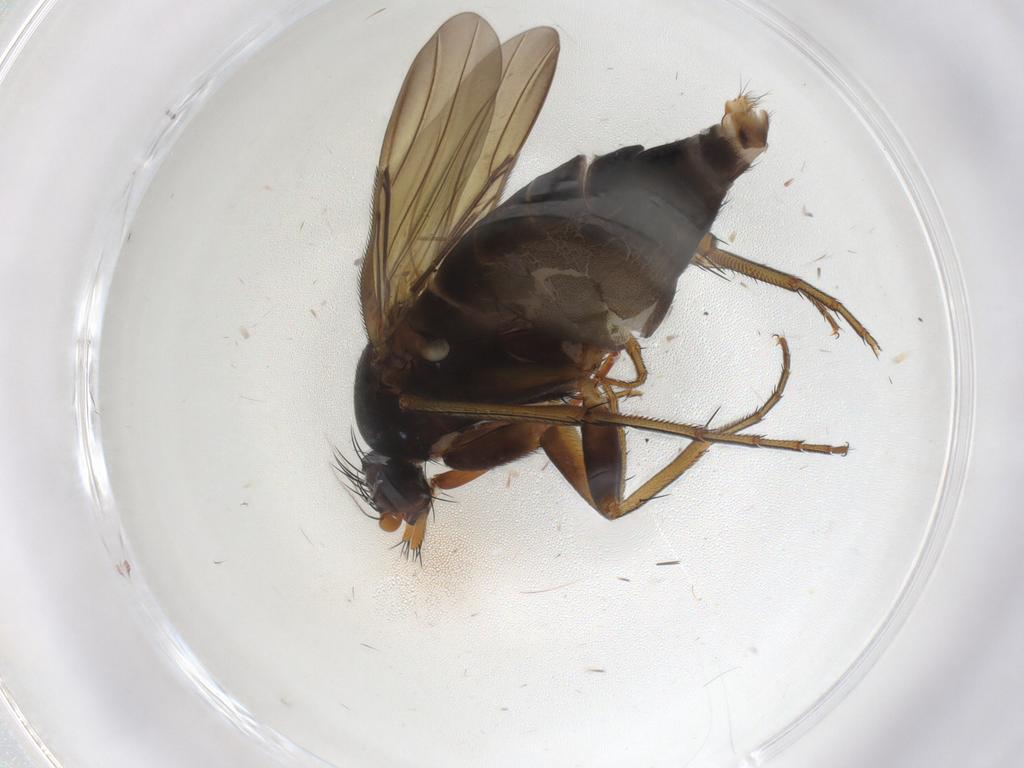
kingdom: Animalia
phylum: Arthropoda
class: Insecta
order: Diptera
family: Phoridae
